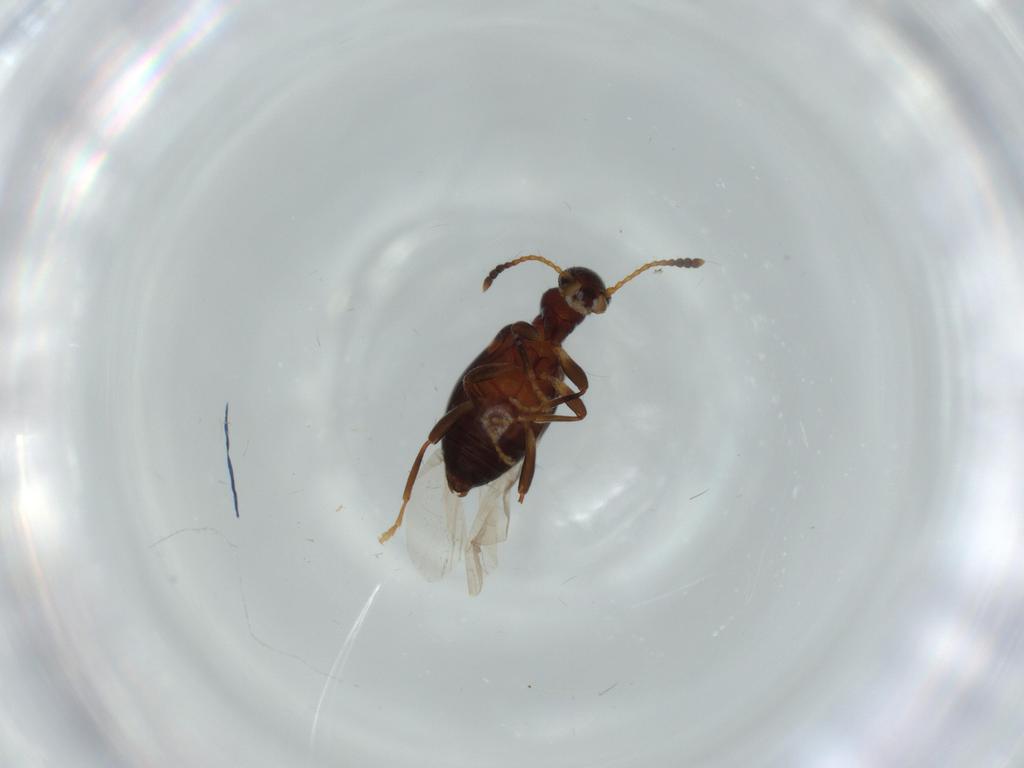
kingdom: Animalia
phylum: Arthropoda
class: Insecta
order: Coleoptera
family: Anthicidae
